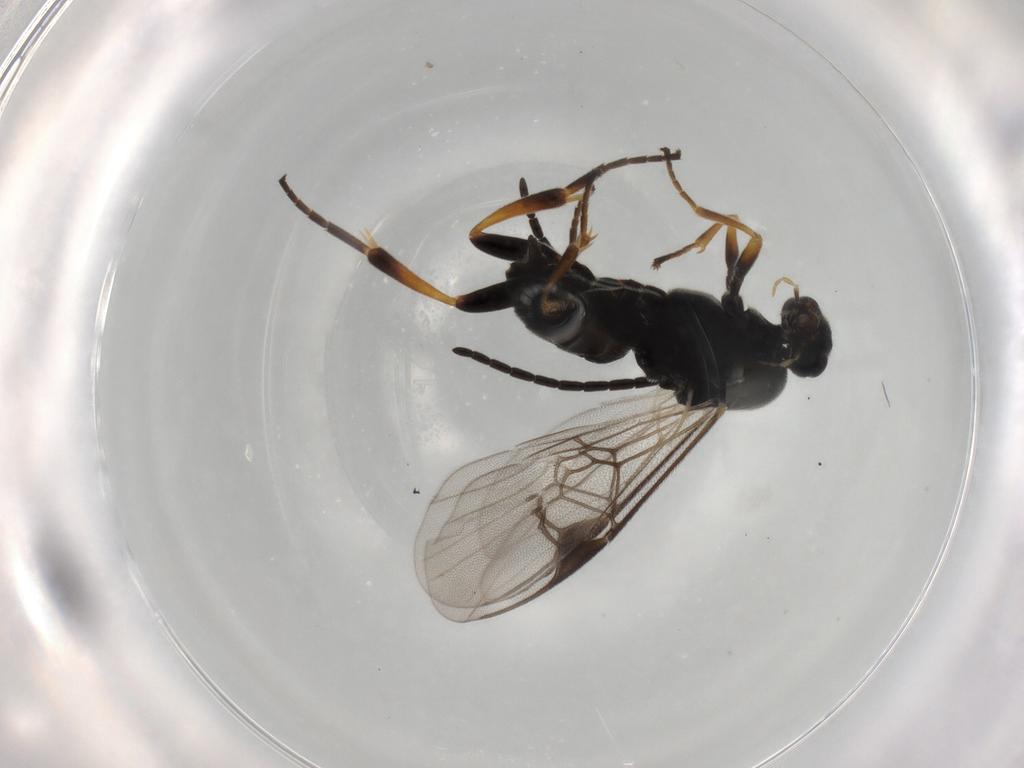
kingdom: Animalia
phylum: Arthropoda
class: Insecta
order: Hymenoptera
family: Braconidae
